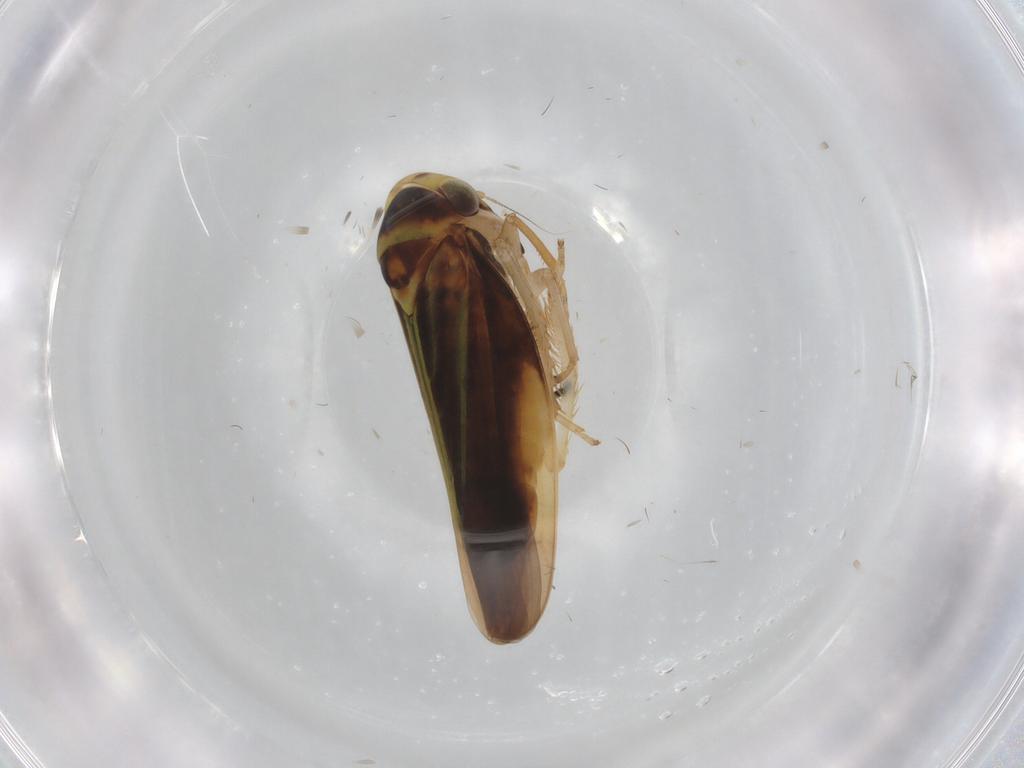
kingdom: Animalia
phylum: Arthropoda
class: Insecta
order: Hemiptera
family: Cicadellidae
